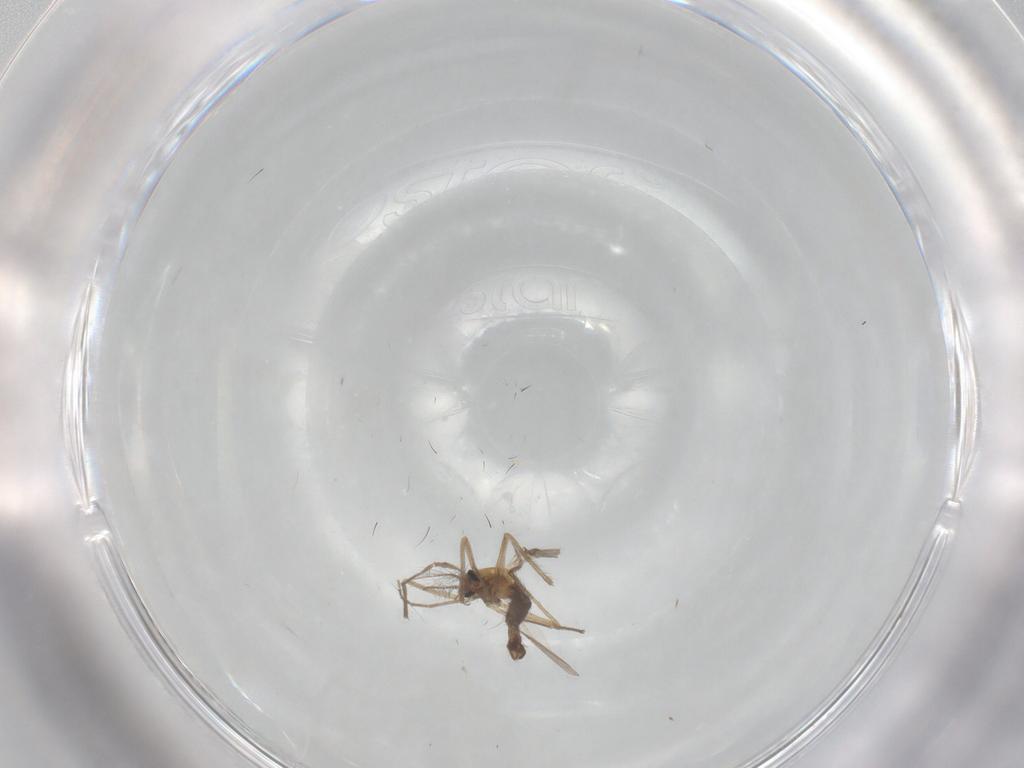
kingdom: Animalia
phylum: Arthropoda
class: Insecta
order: Diptera
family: Chironomidae
